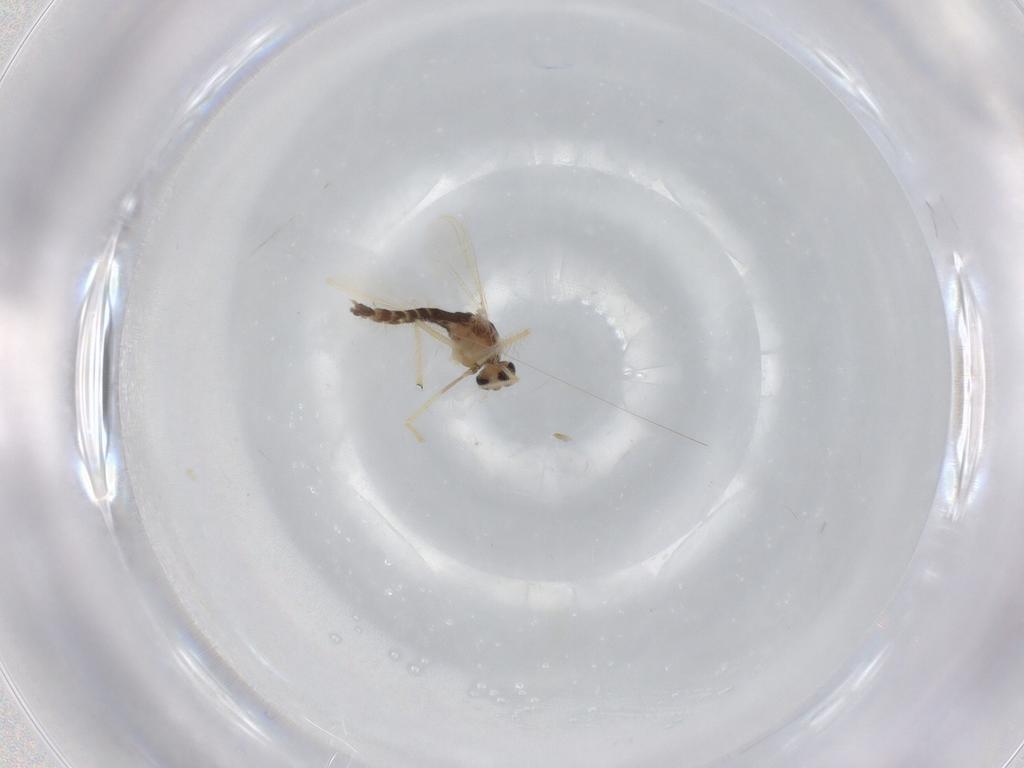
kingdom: Animalia
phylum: Arthropoda
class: Insecta
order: Diptera
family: Chironomidae
